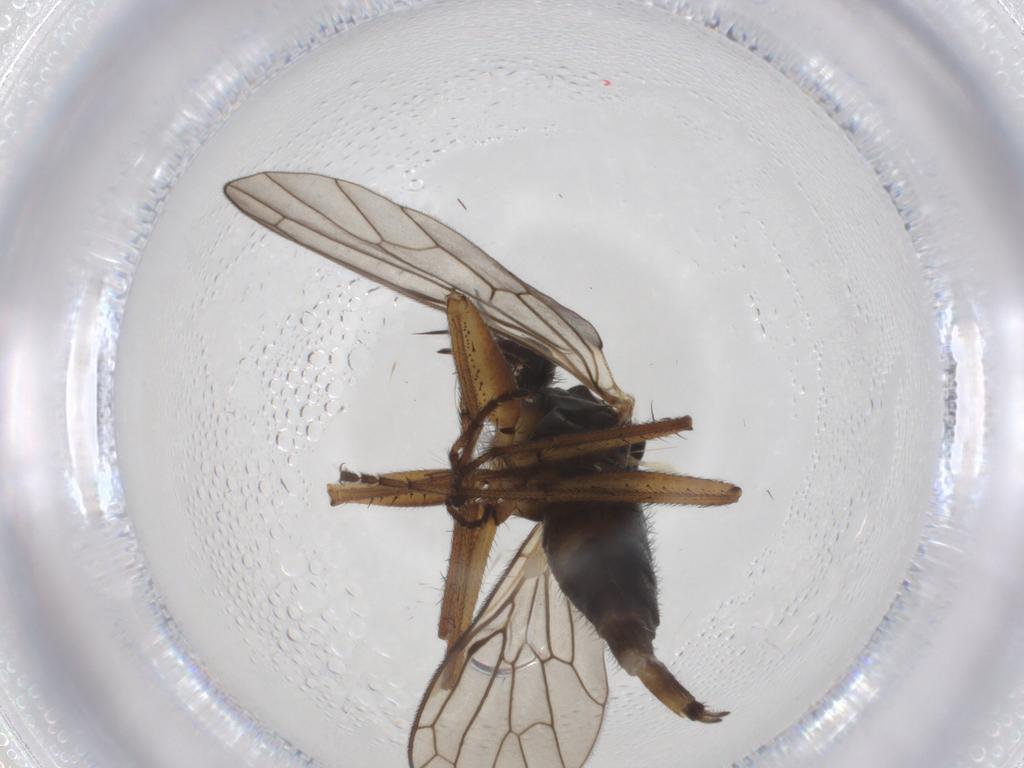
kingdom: Animalia
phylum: Arthropoda
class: Insecta
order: Diptera
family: Empididae
